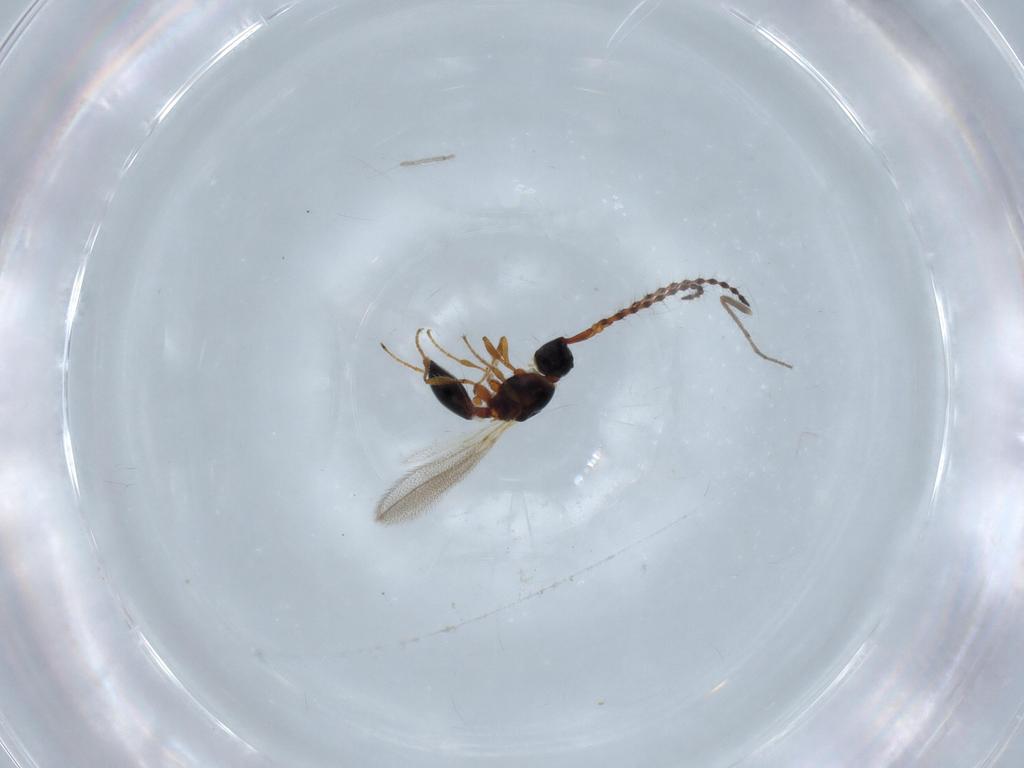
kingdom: Animalia
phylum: Arthropoda
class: Insecta
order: Hymenoptera
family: Diapriidae
